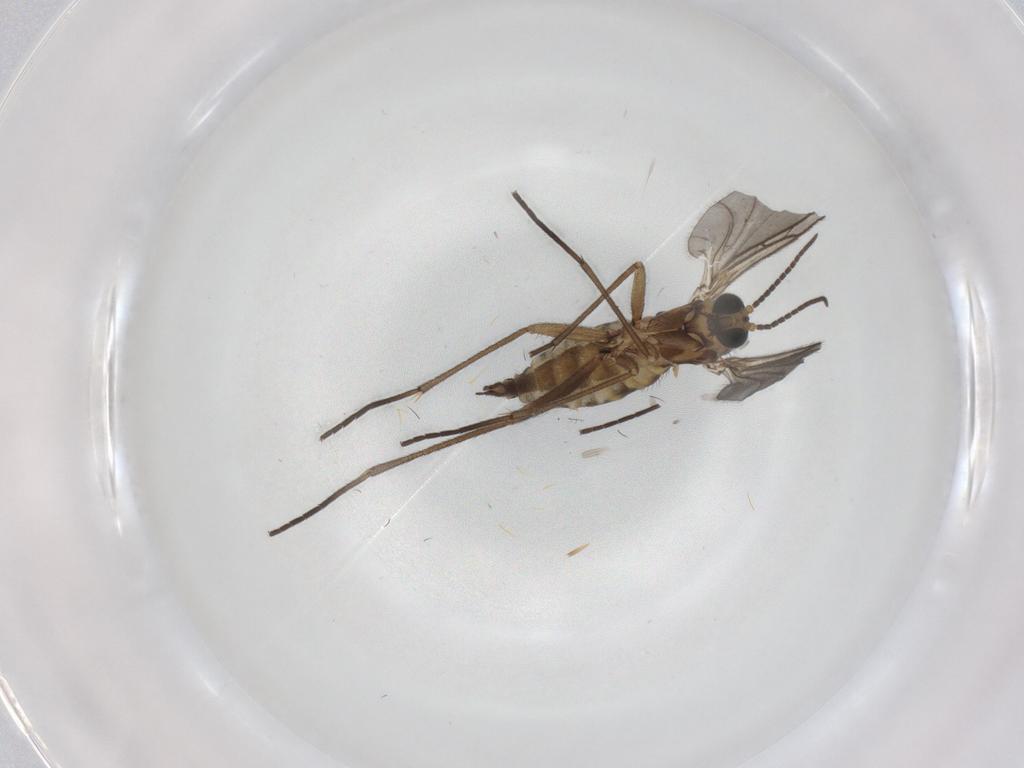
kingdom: Animalia
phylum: Arthropoda
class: Insecta
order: Diptera
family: Sciaridae
